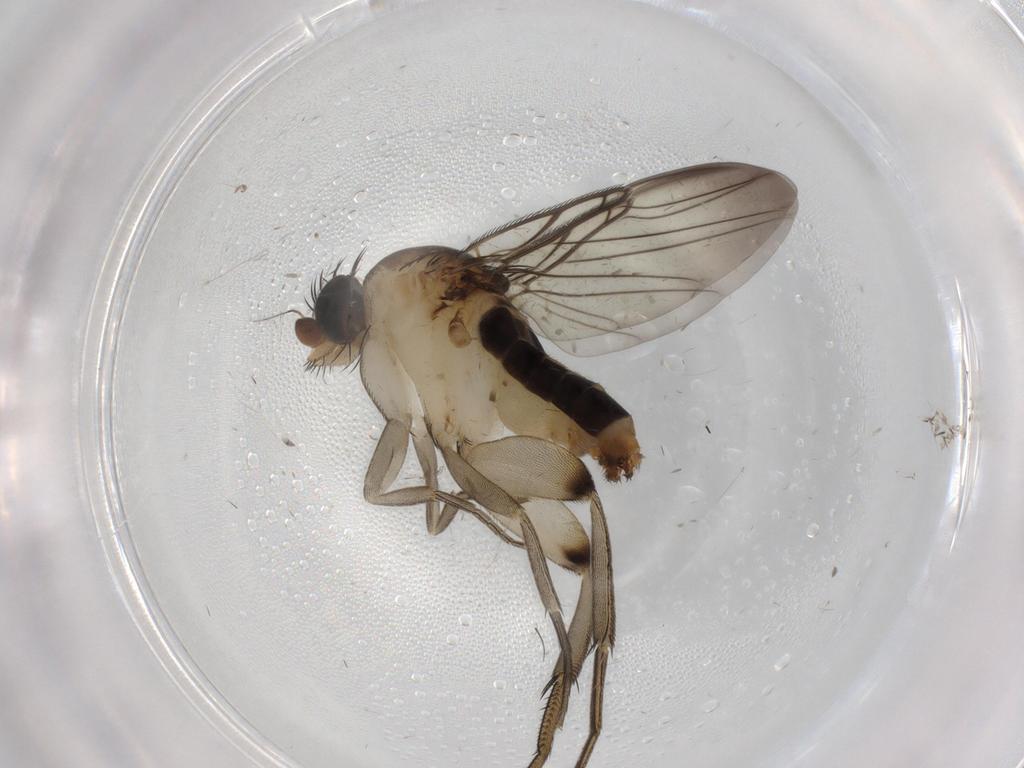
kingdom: Animalia
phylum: Arthropoda
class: Insecta
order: Diptera
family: Phoridae
